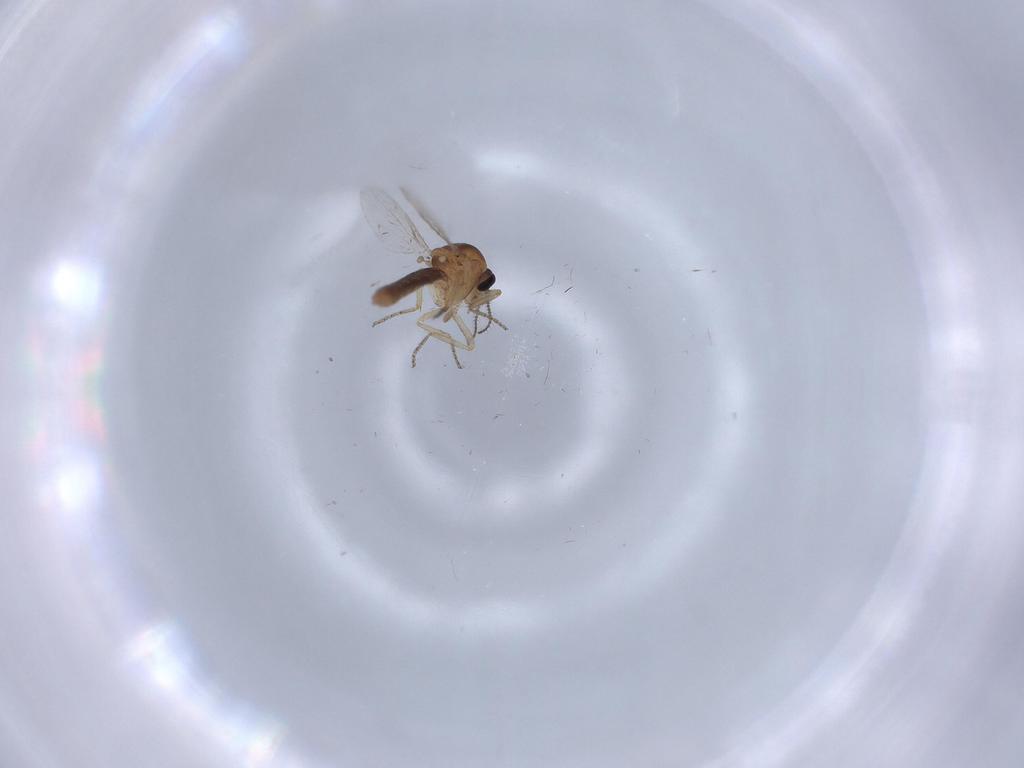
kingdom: Animalia
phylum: Arthropoda
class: Insecta
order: Diptera
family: Ceratopogonidae
